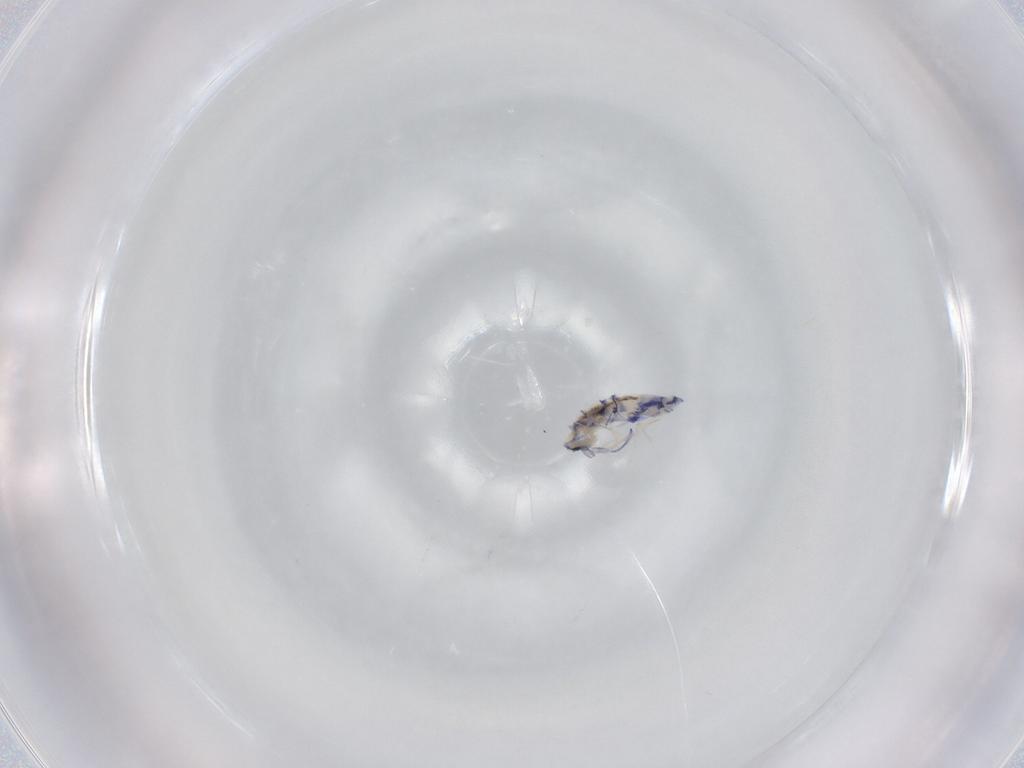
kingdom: Animalia
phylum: Arthropoda
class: Collembola
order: Entomobryomorpha
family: Entomobryidae
